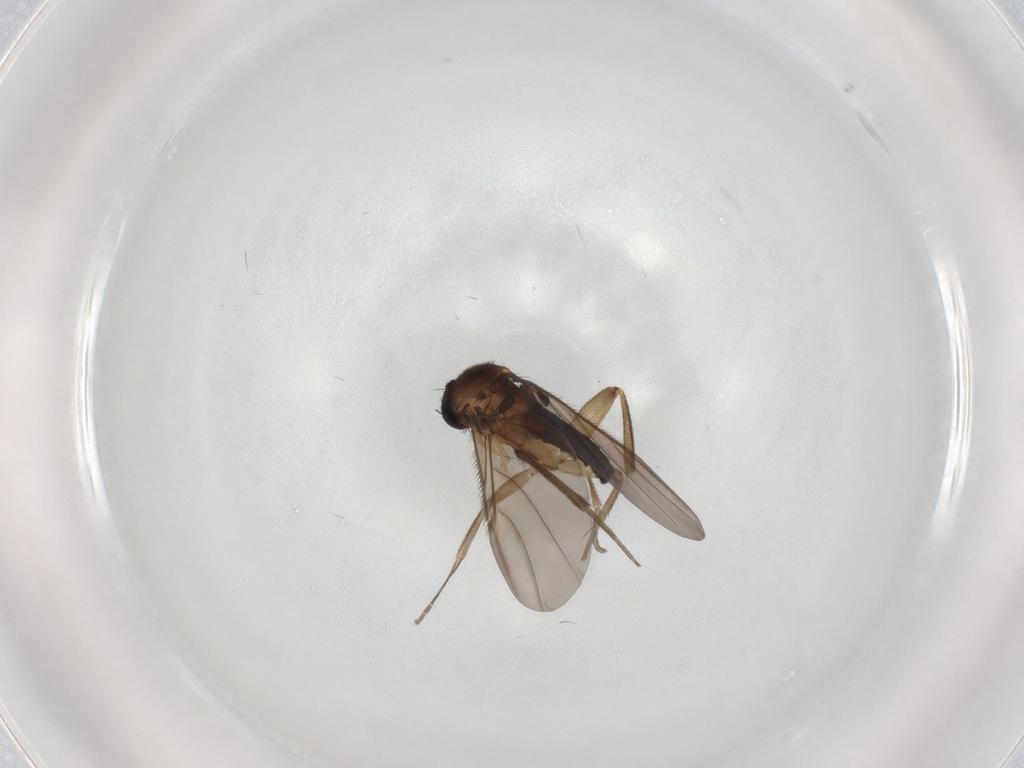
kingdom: Animalia
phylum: Arthropoda
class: Insecta
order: Diptera
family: Phoridae
